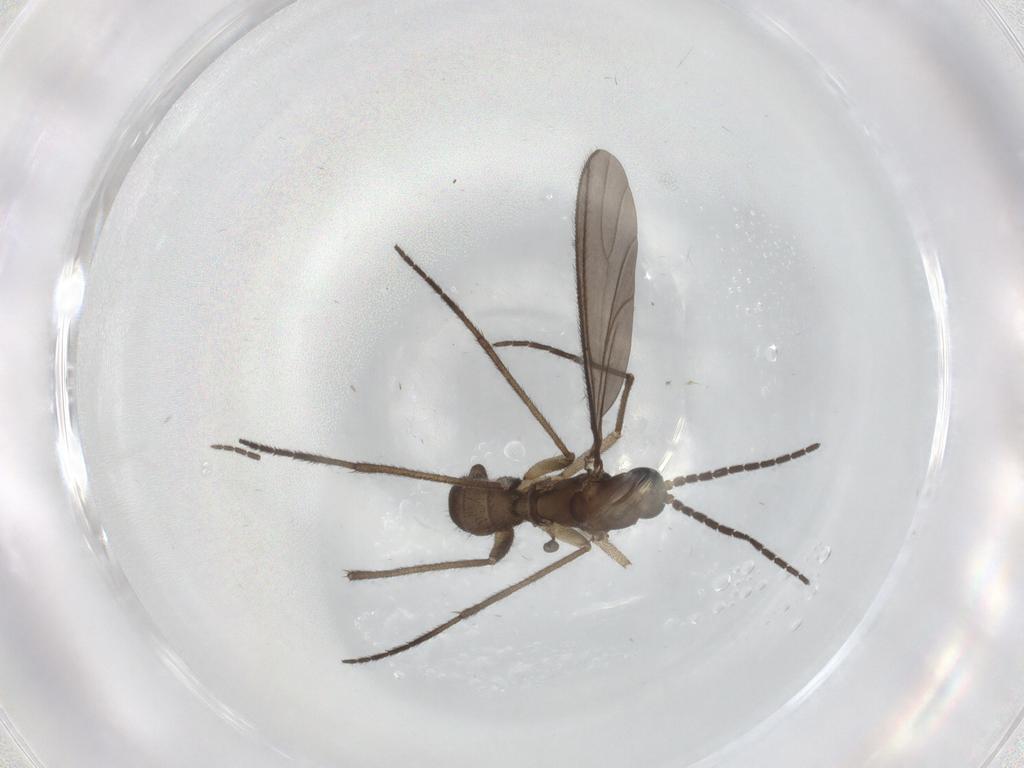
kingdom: Animalia
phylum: Arthropoda
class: Insecta
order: Diptera
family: Sciaridae
